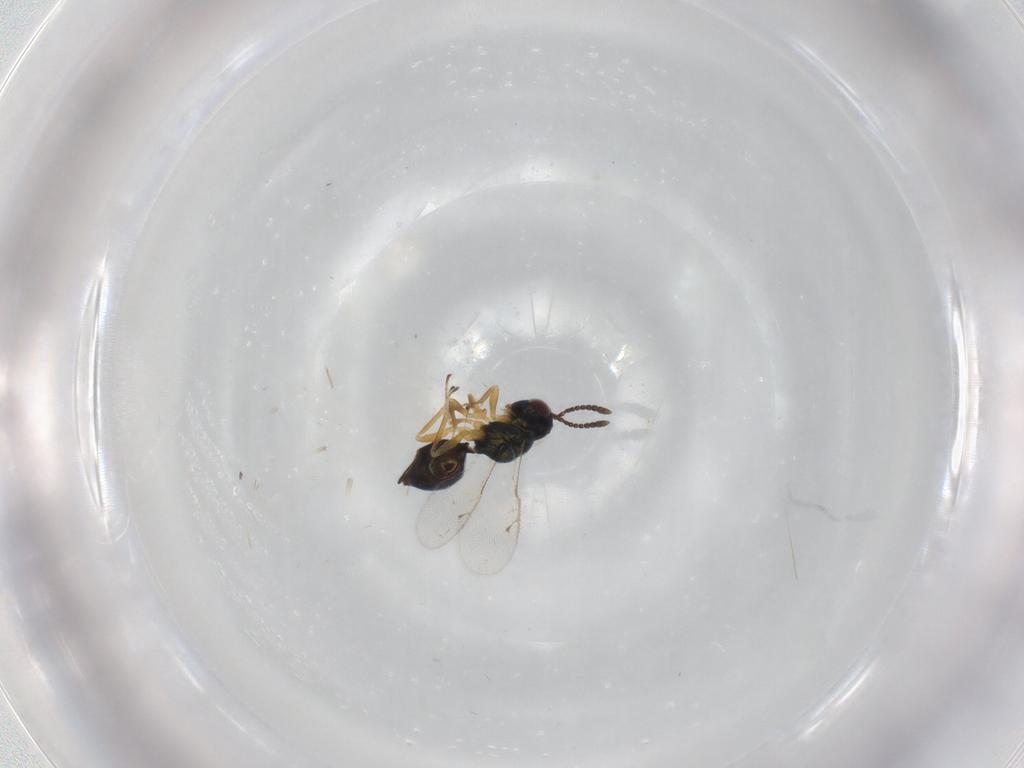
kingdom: Animalia
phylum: Arthropoda
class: Insecta
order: Hymenoptera
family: Pteromalidae
